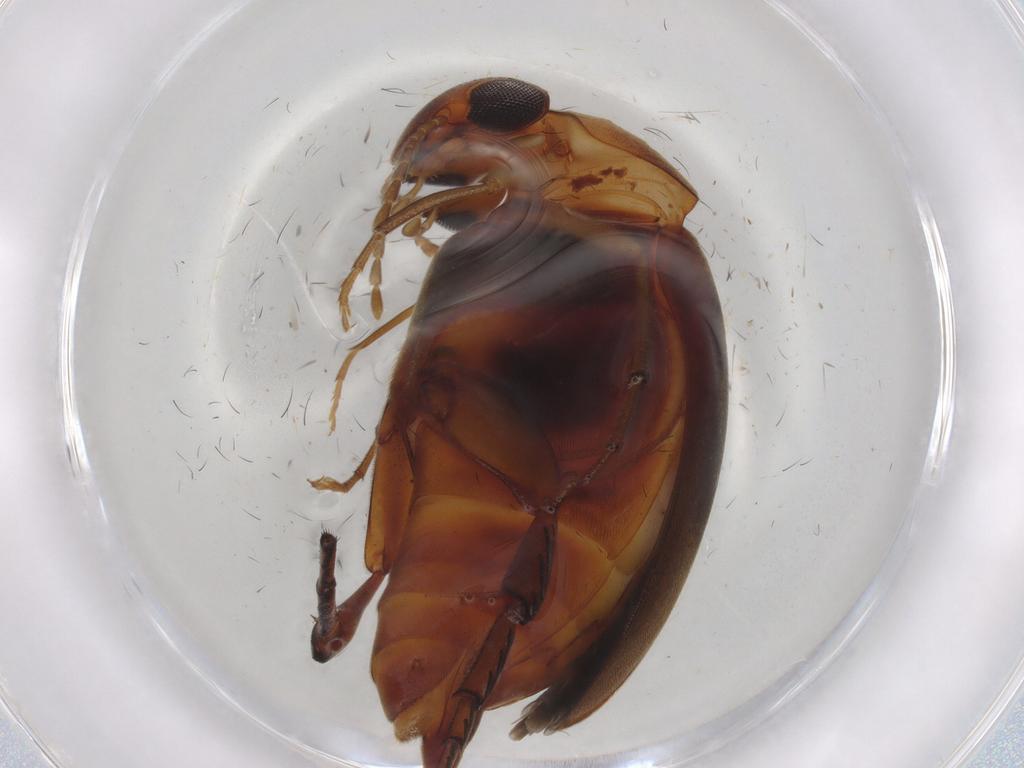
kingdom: Animalia
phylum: Arthropoda
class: Insecta
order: Coleoptera
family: Mordellidae
